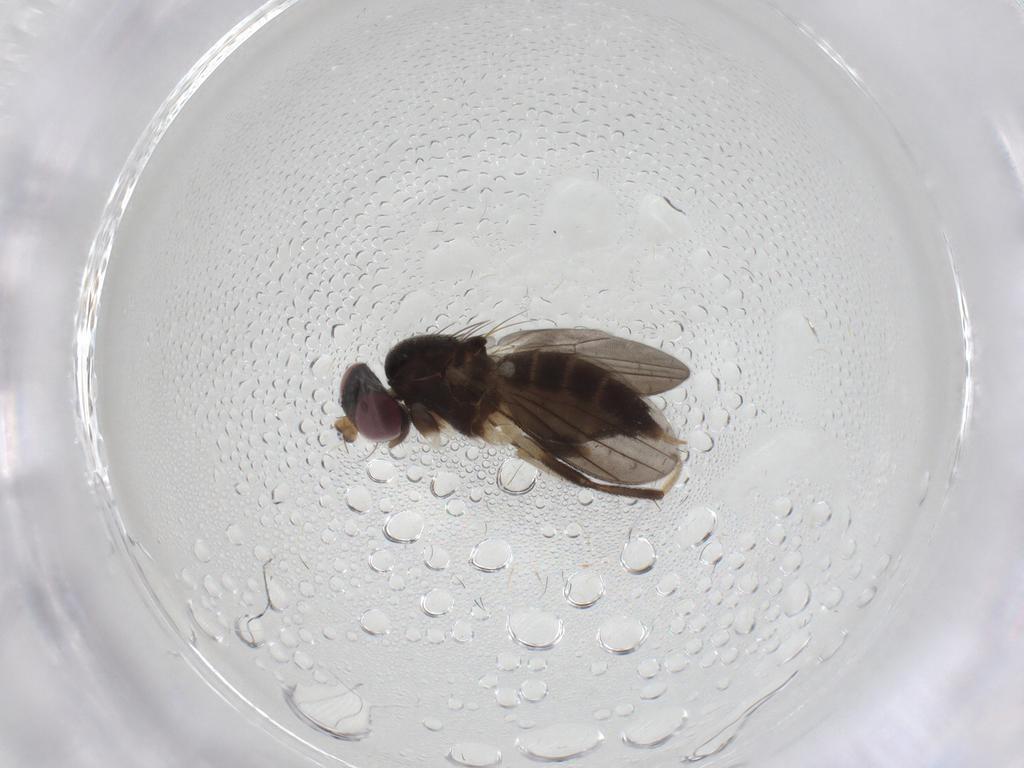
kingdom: Animalia
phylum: Arthropoda
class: Insecta
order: Diptera
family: Clusiidae
